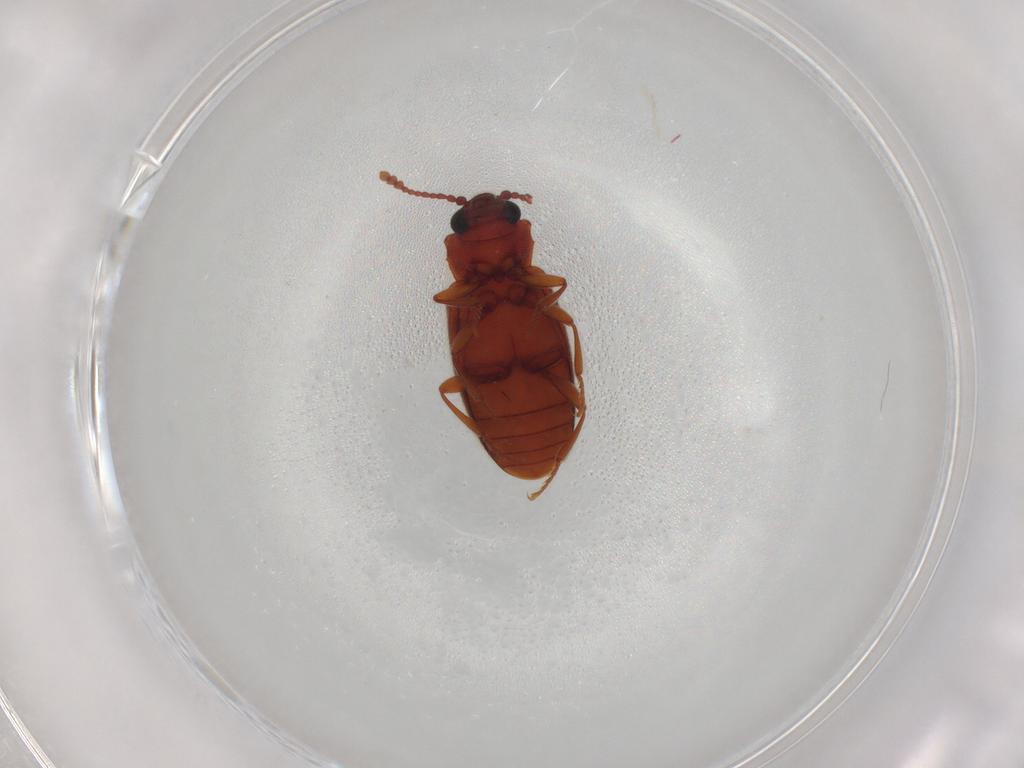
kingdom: Animalia
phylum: Arthropoda
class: Insecta
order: Coleoptera
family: Cryptophagidae
